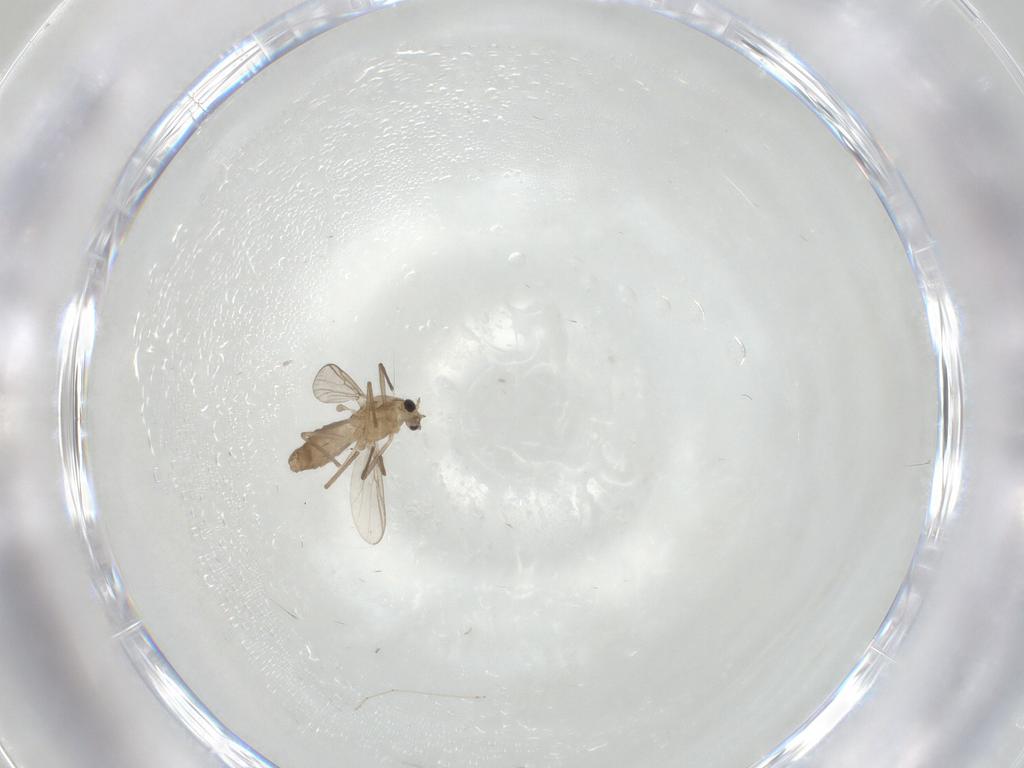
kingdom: Animalia
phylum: Arthropoda
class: Insecta
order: Diptera
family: Chironomidae
